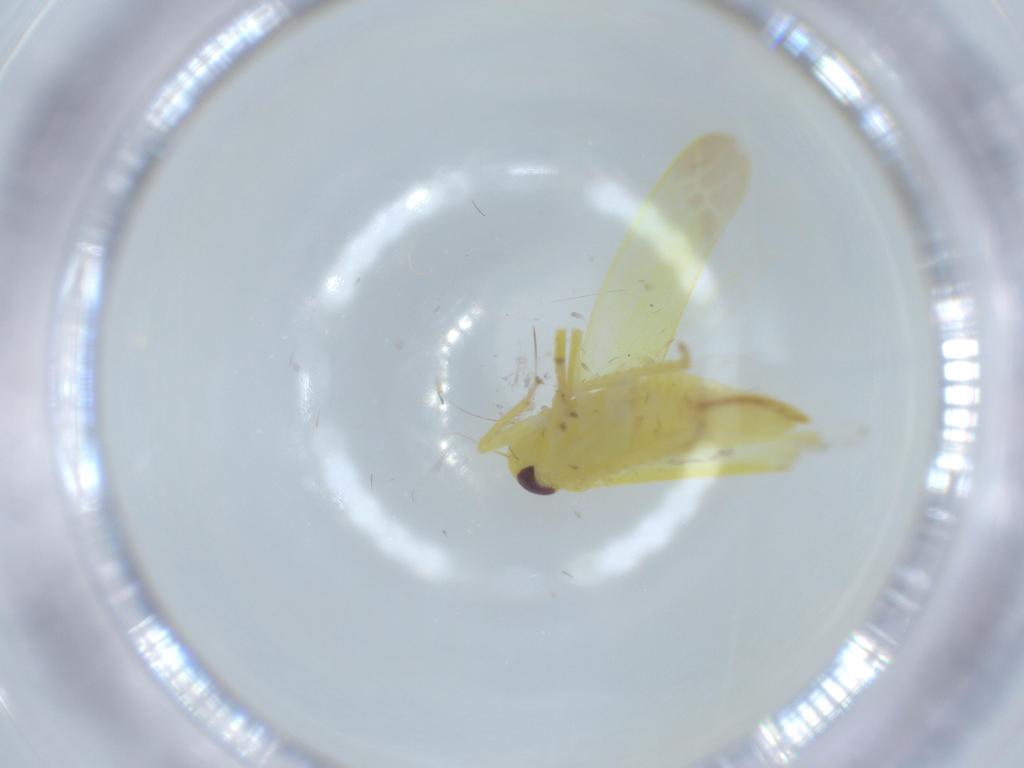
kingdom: Animalia
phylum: Arthropoda
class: Insecta
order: Hemiptera
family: Cicadellidae
